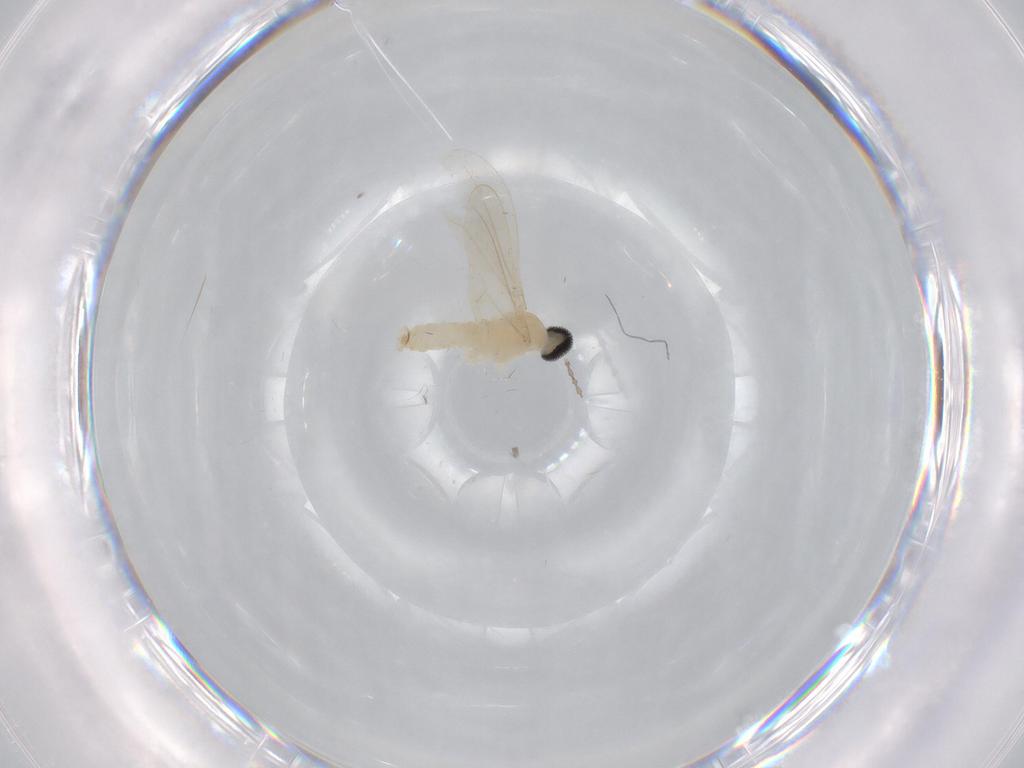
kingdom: Animalia
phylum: Arthropoda
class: Insecta
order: Diptera
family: Cecidomyiidae
